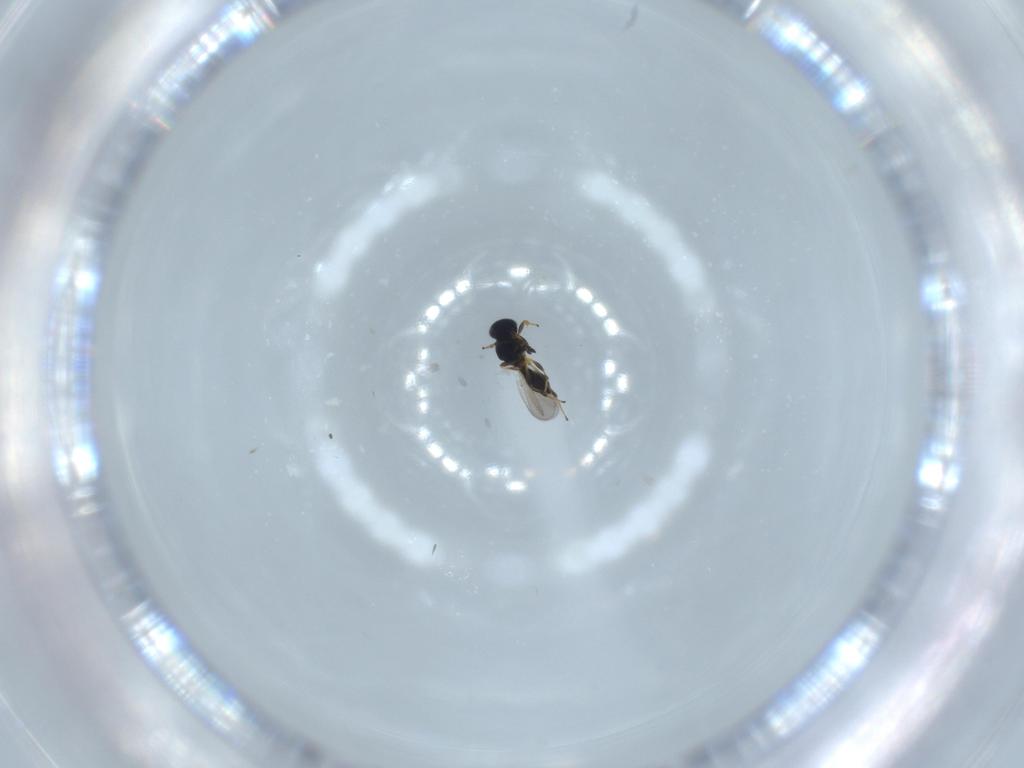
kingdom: Animalia
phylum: Arthropoda
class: Insecta
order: Hymenoptera
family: Platygastridae
